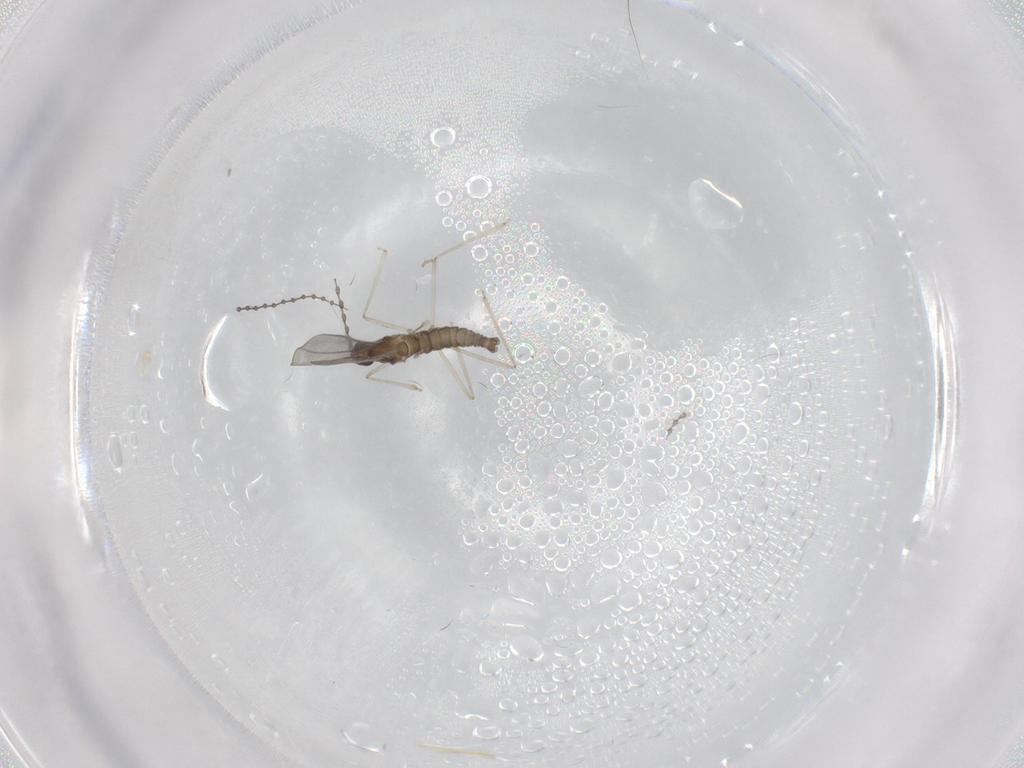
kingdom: Animalia
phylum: Arthropoda
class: Insecta
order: Diptera
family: Cecidomyiidae
